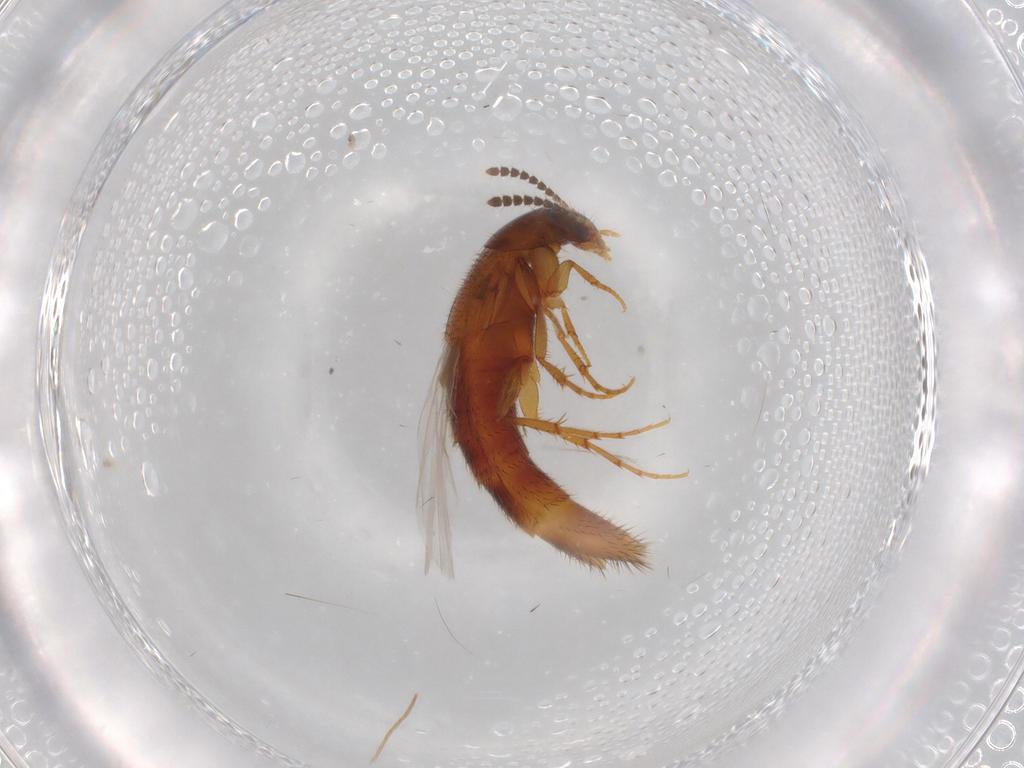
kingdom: Animalia
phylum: Arthropoda
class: Insecta
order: Coleoptera
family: Staphylinidae
